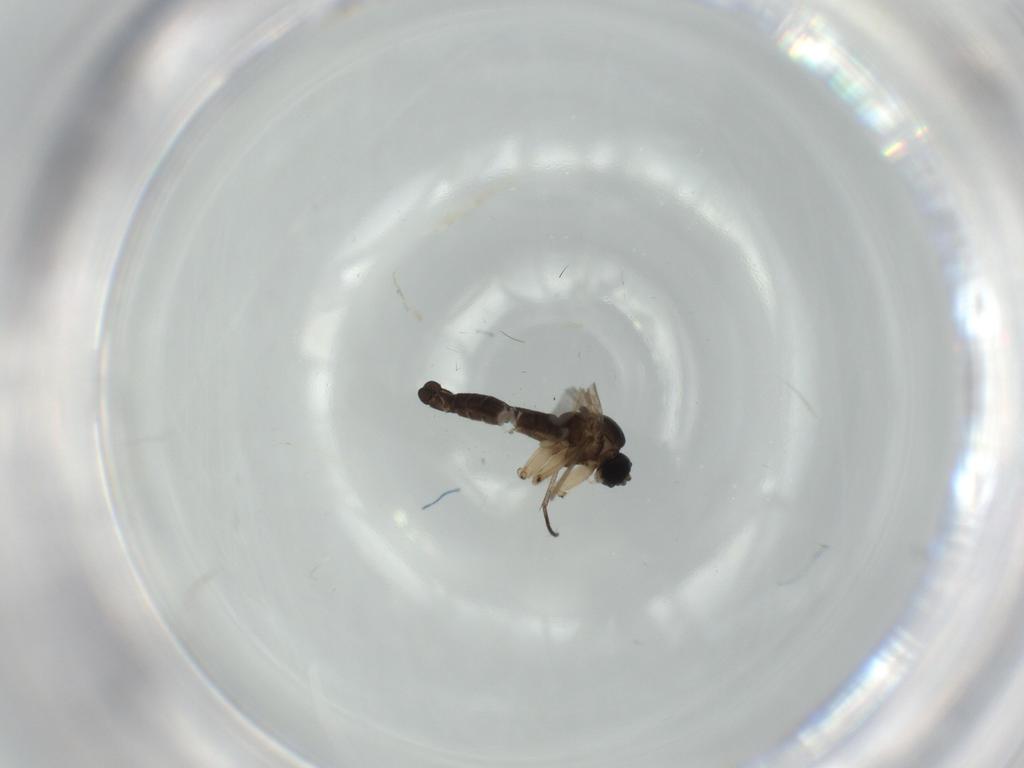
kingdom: Animalia
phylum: Arthropoda
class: Insecta
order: Diptera
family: Sciaridae
